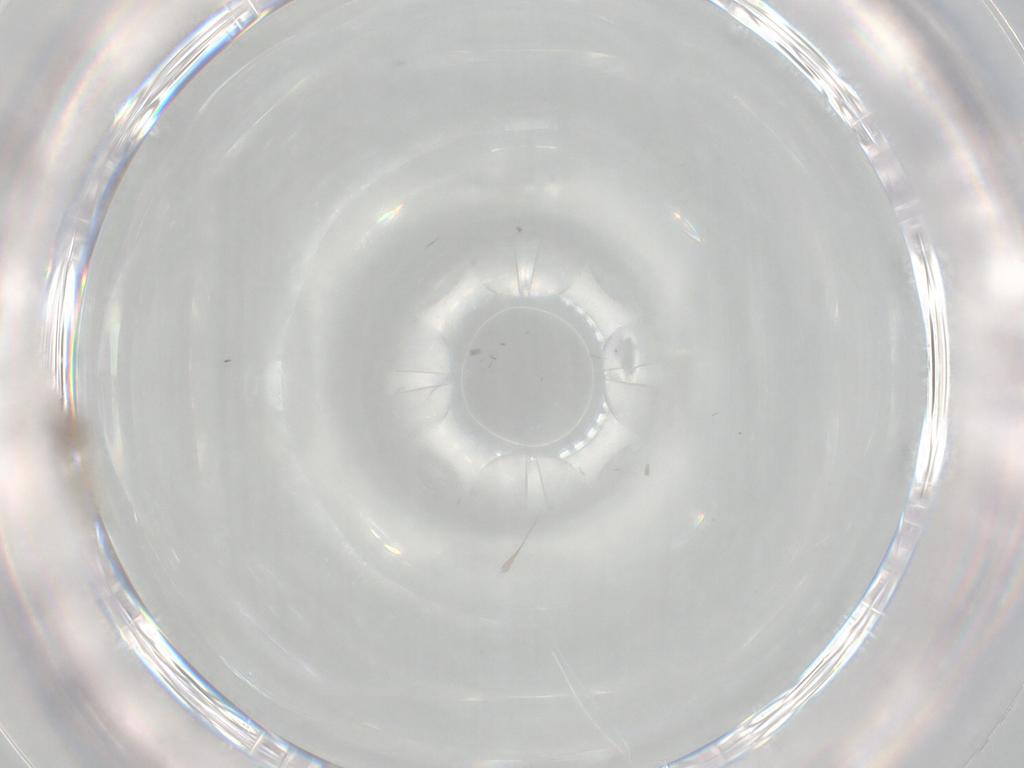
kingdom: Animalia
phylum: Arthropoda
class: Insecta
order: Diptera
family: Cecidomyiidae
